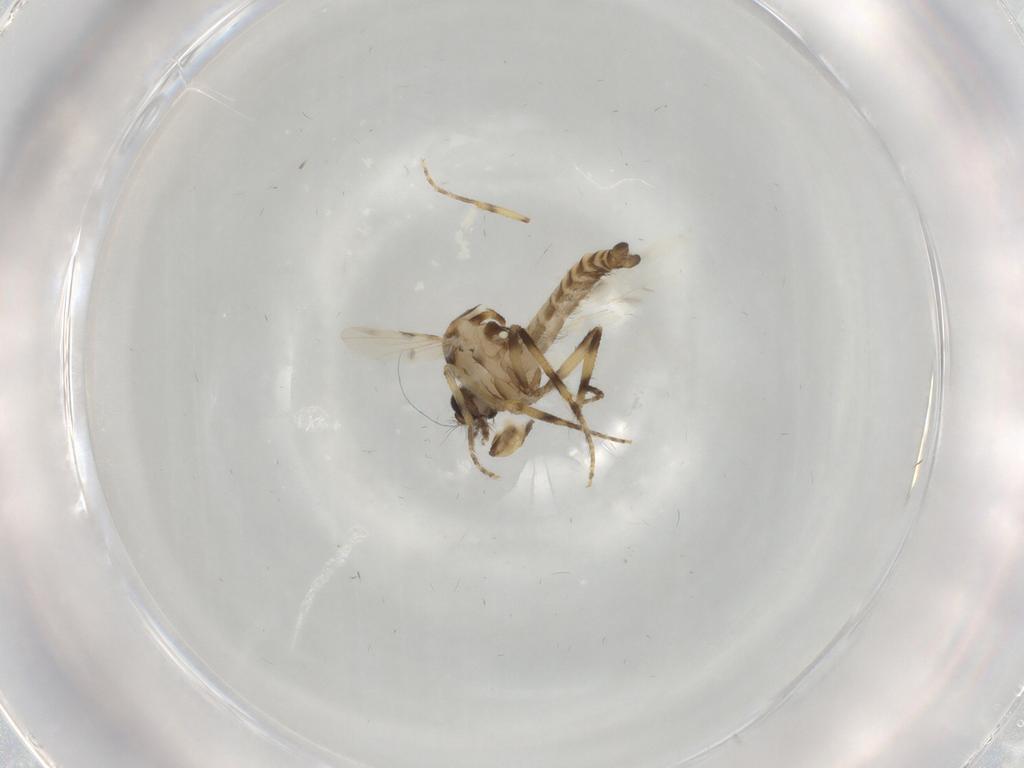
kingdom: Animalia
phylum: Arthropoda
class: Insecta
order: Diptera
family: Ceratopogonidae
